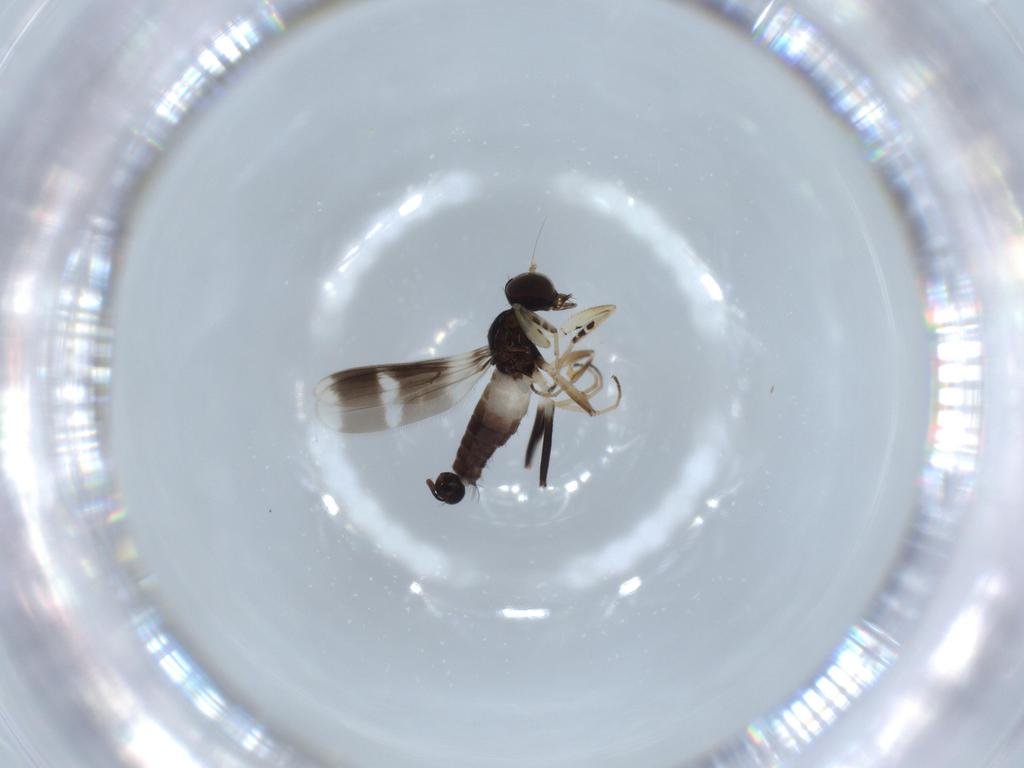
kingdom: Animalia
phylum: Arthropoda
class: Insecta
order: Diptera
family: Hybotidae
